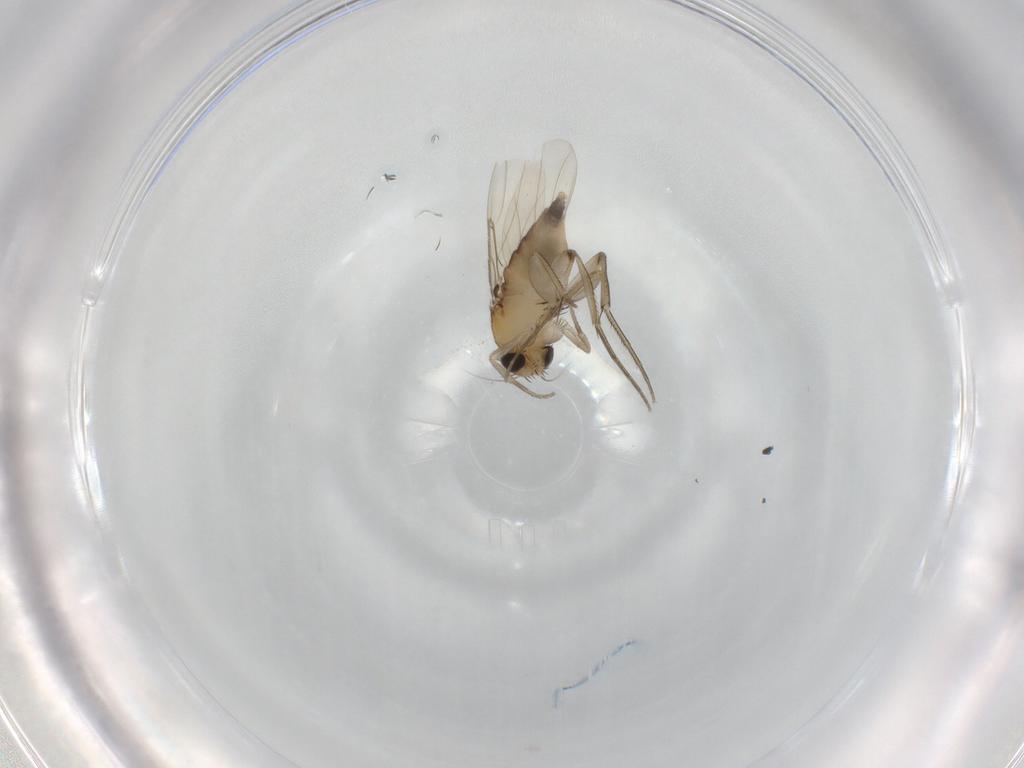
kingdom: Animalia
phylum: Arthropoda
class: Insecta
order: Diptera
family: Phoridae
